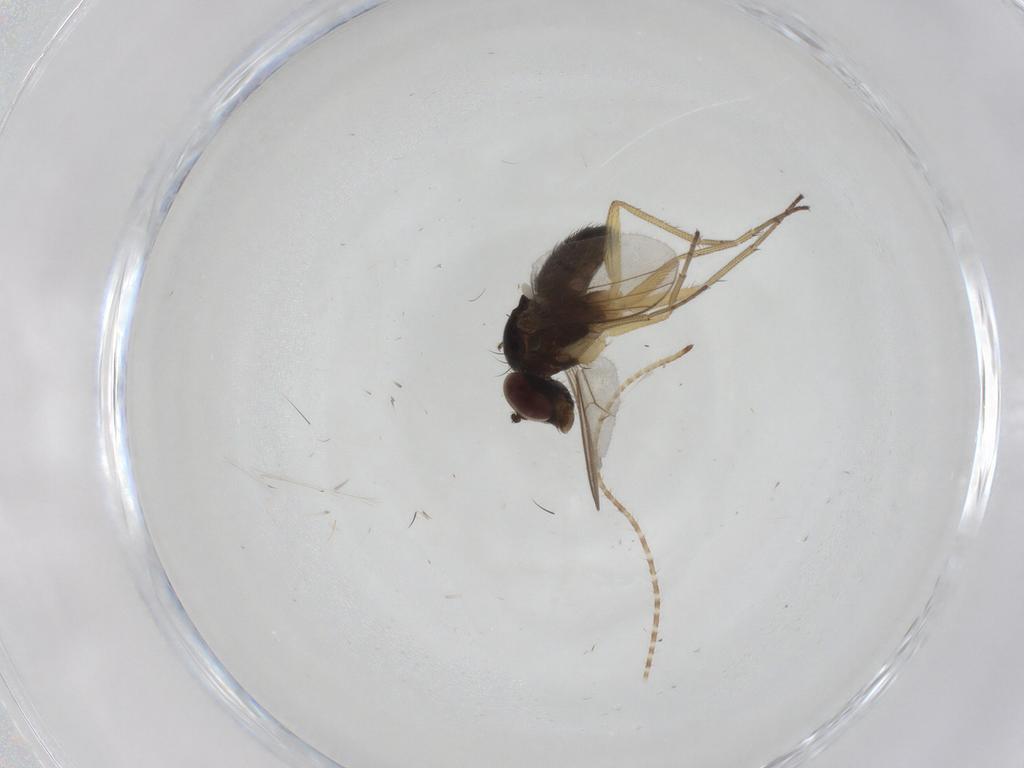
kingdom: Animalia
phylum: Arthropoda
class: Insecta
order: Diptera
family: Dolichopodidae
